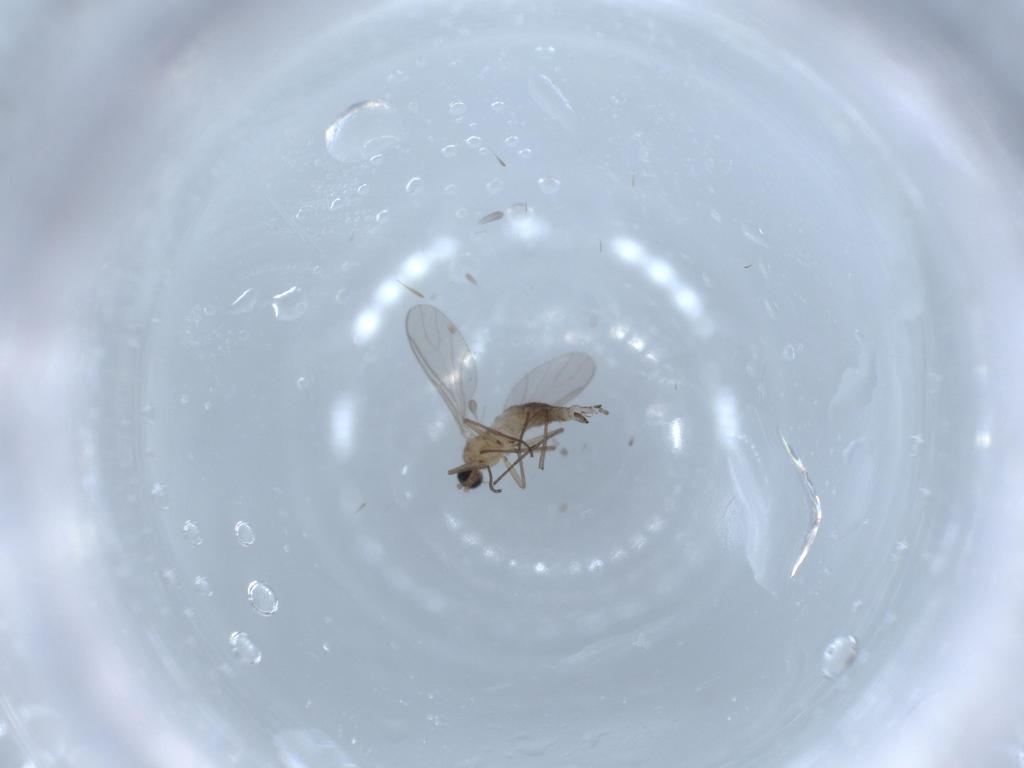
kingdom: Animalia
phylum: Arthropoda
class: Insecta
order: Diptera
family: Sciaridae
